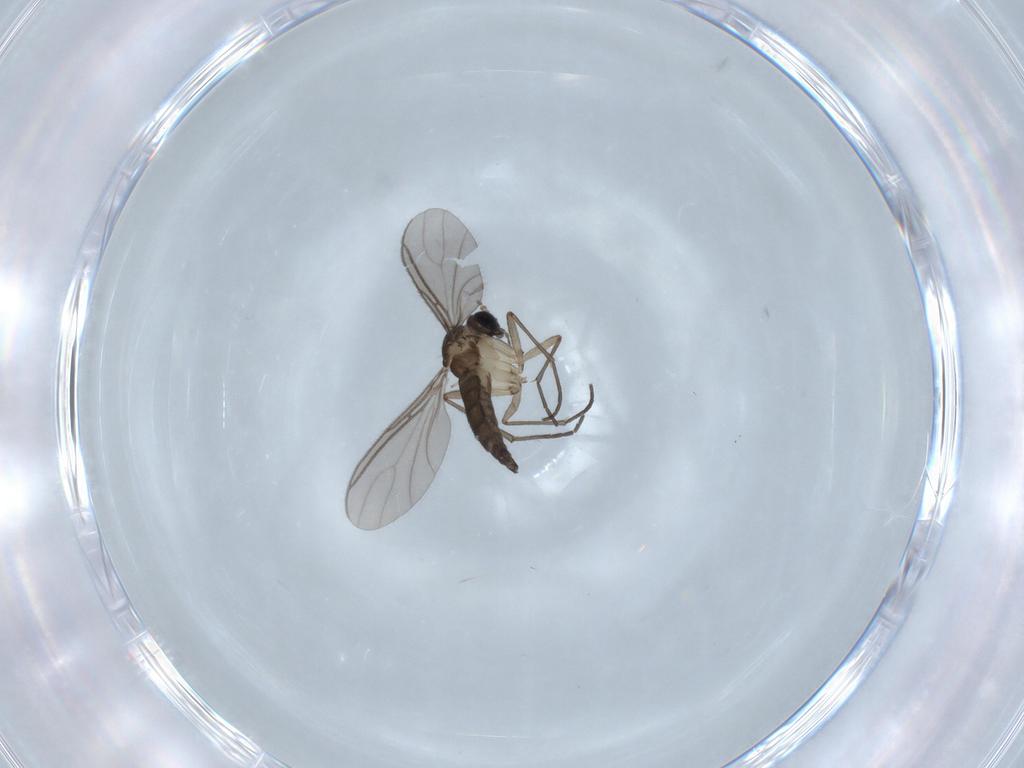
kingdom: Animalia
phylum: Arthropoda
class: Insecta
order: Diptera
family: Sciaridae
